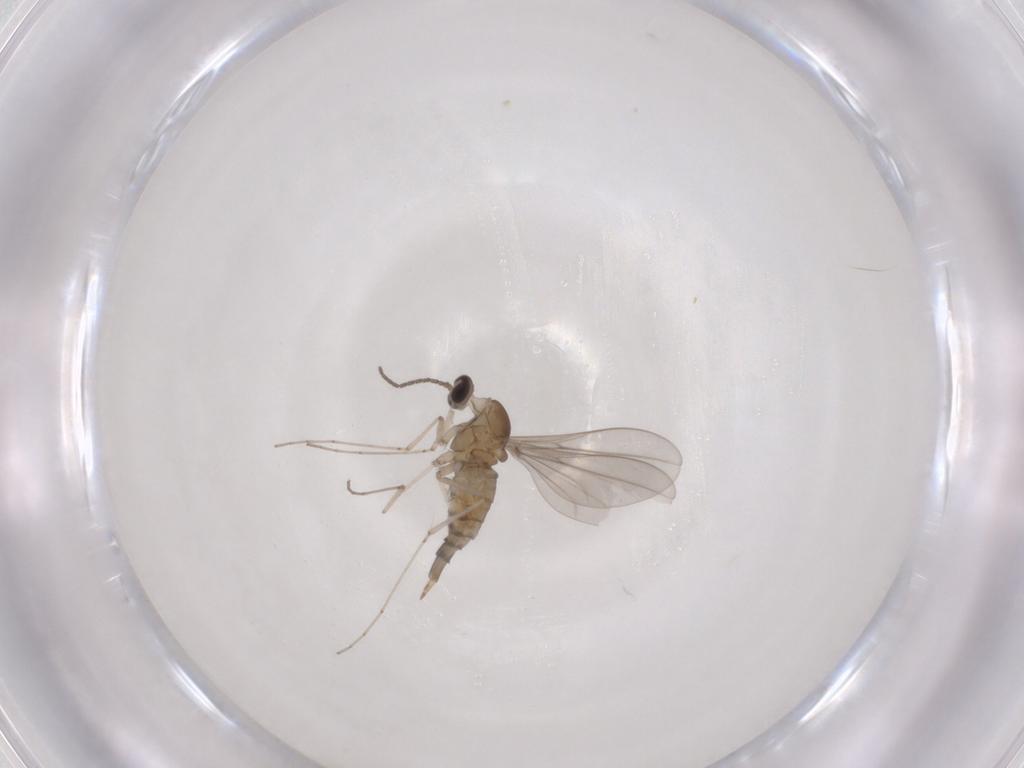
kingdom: Animalia
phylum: Arthropoda
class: Insecta
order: Diptera
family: Cecidomyiidae
